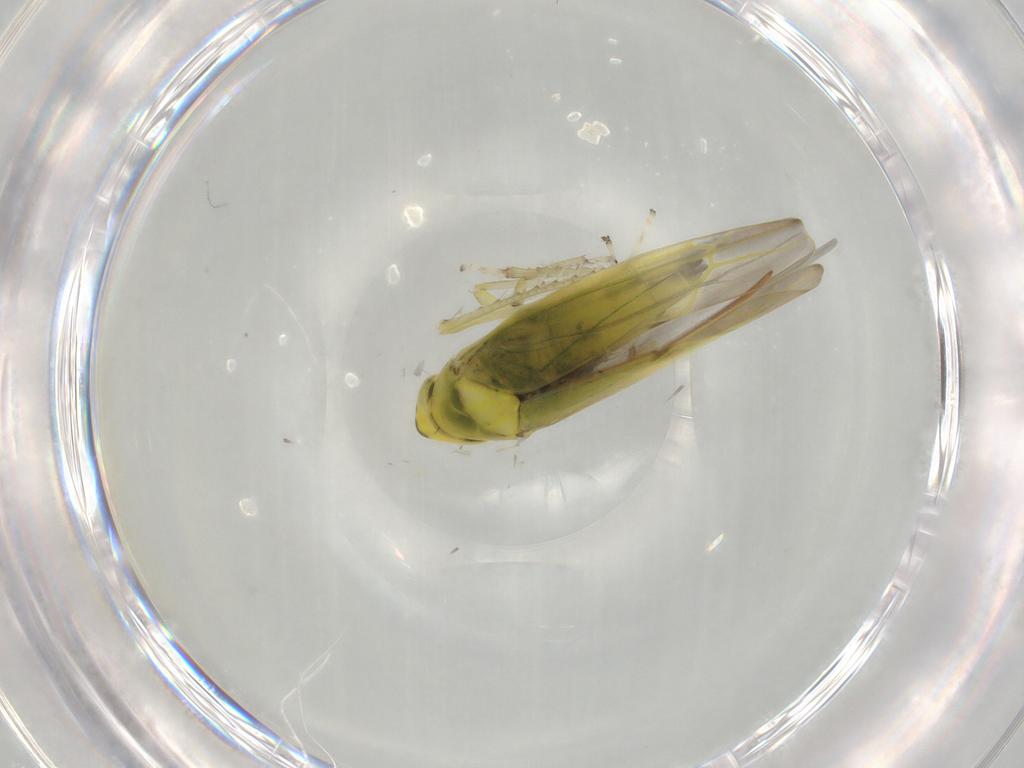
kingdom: Animalia
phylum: Arthropoda
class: Insecta
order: Hemiptera
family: Cicadellidae
